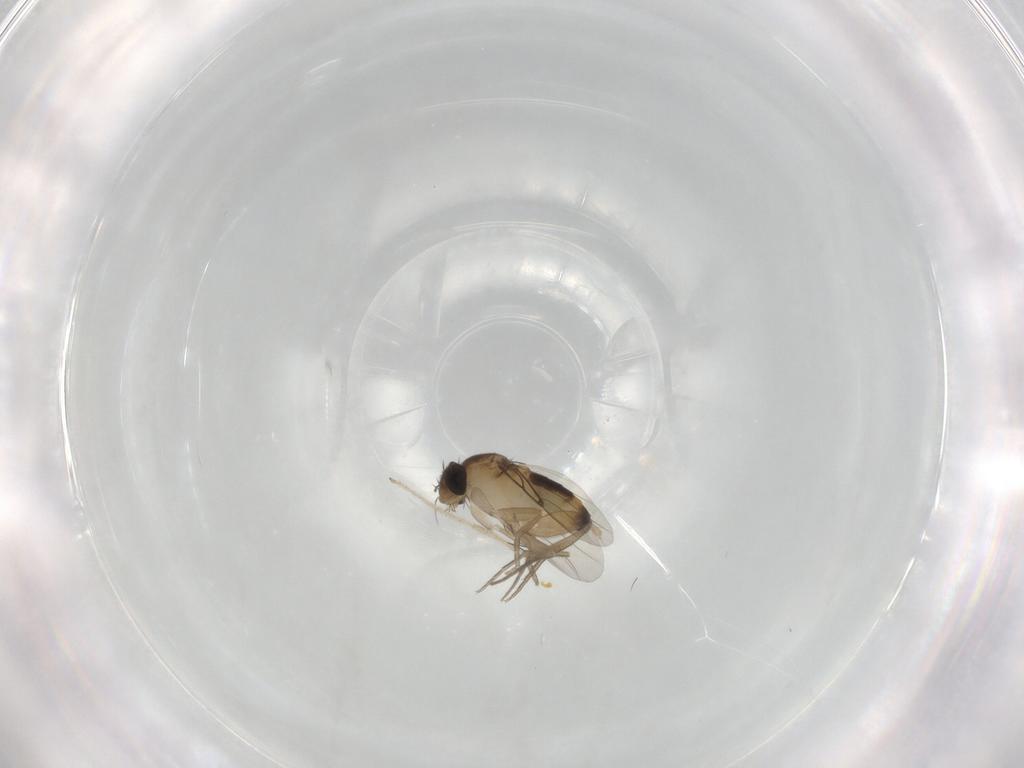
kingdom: Animalia
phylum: Arthropoda
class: Insecta
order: Diptera
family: Phoridae
